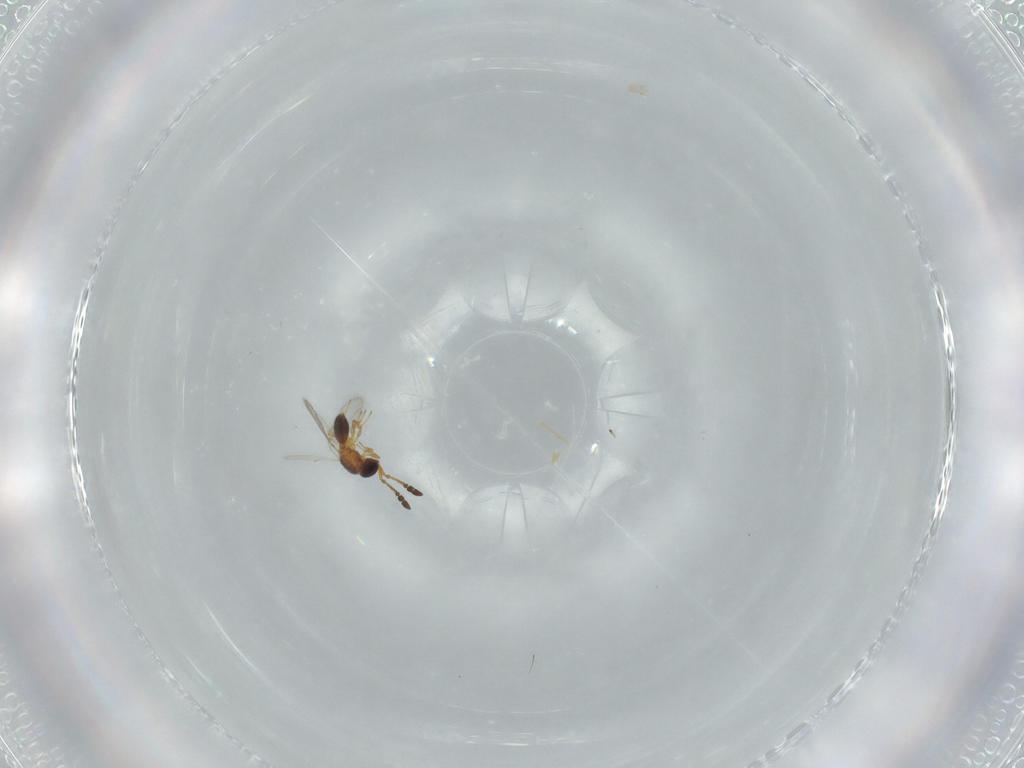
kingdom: Animalia
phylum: Arthropoda
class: Insecta
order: Hymenoptera
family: Diapriidae
